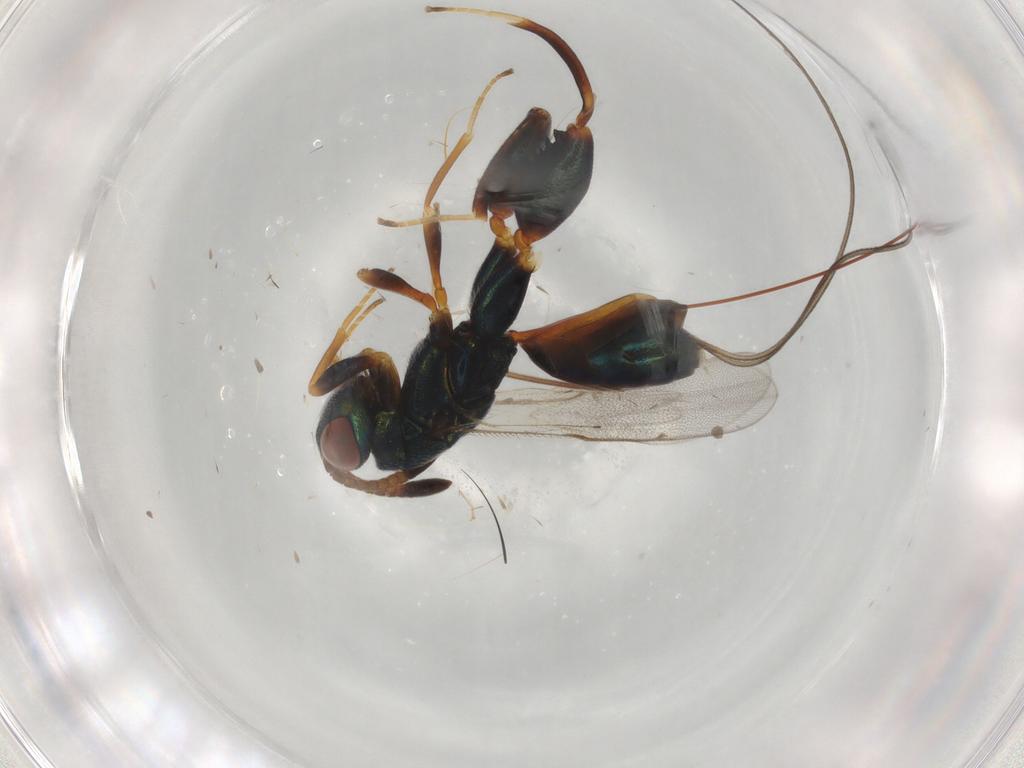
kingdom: Animalia
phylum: Arthropoda
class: Insecta
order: Hymenoptera
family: Torymidae
